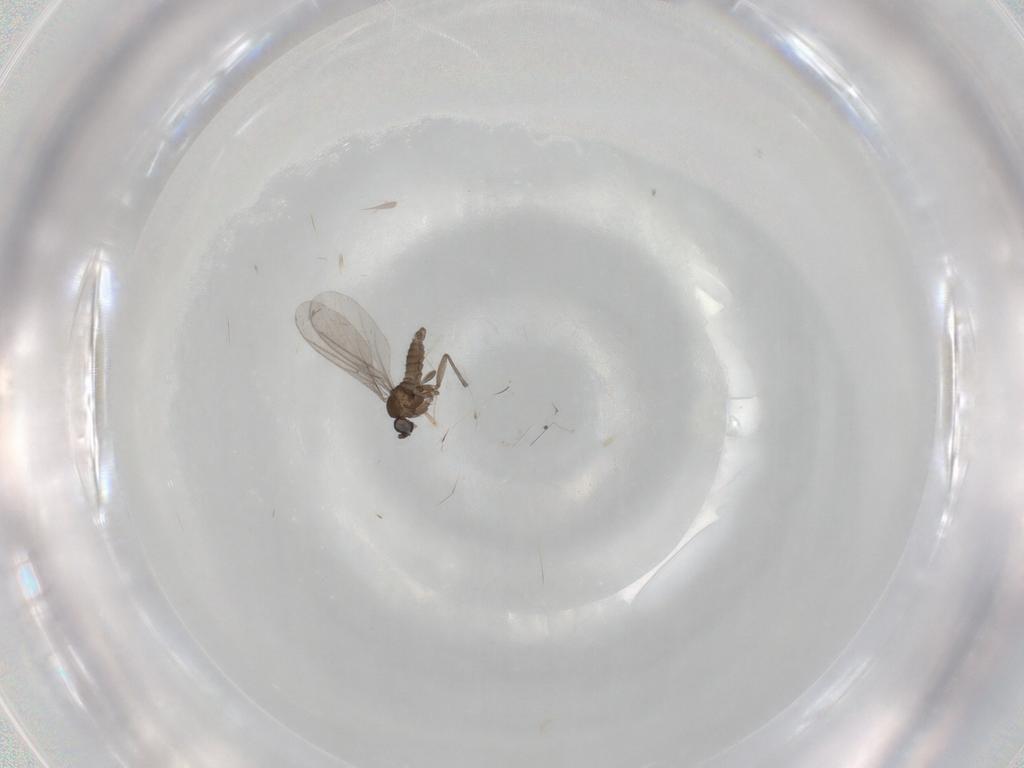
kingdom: Animalia
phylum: Arthropoda
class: Insecta
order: Diptera
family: Sciaridae
